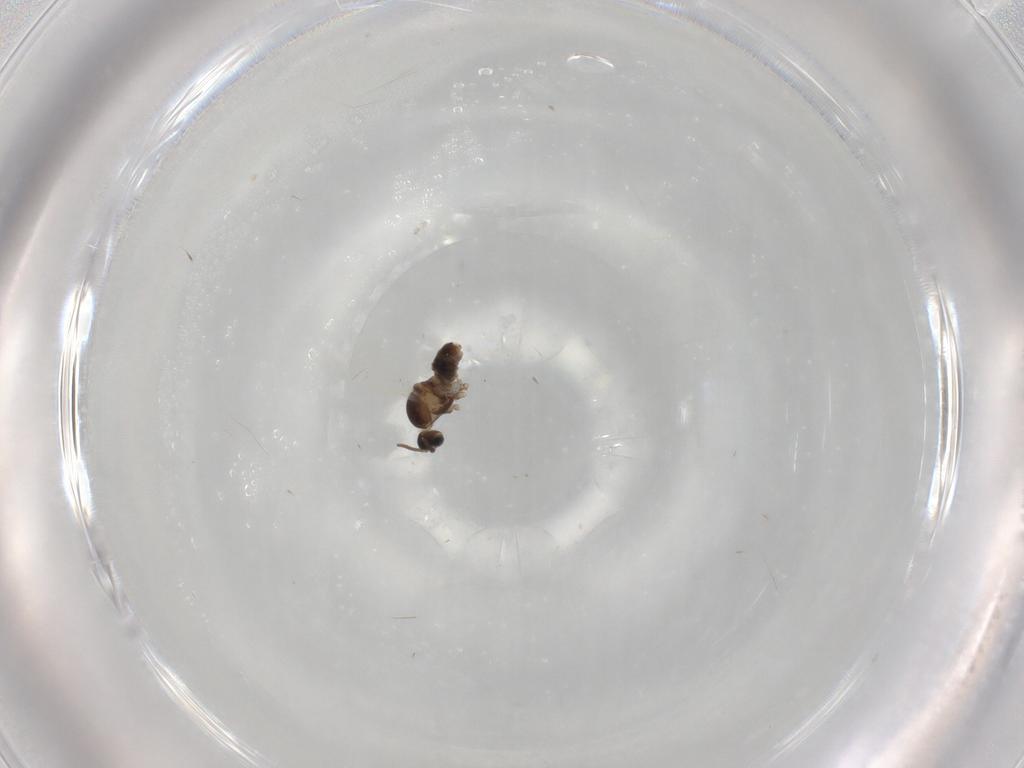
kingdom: Animalia
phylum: Arthropoda
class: Insecta
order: Diptera
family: Cecidomyiidae
